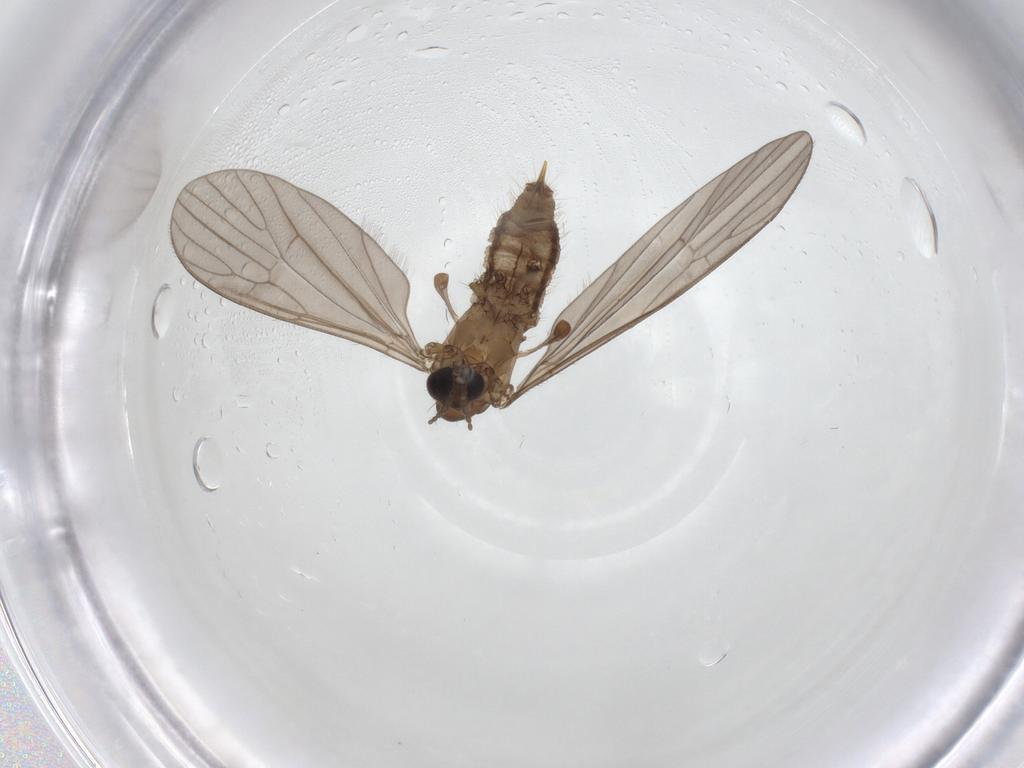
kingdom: Animalia
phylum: Arthropoda
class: Insecta
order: Diptera
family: Limoniidae
